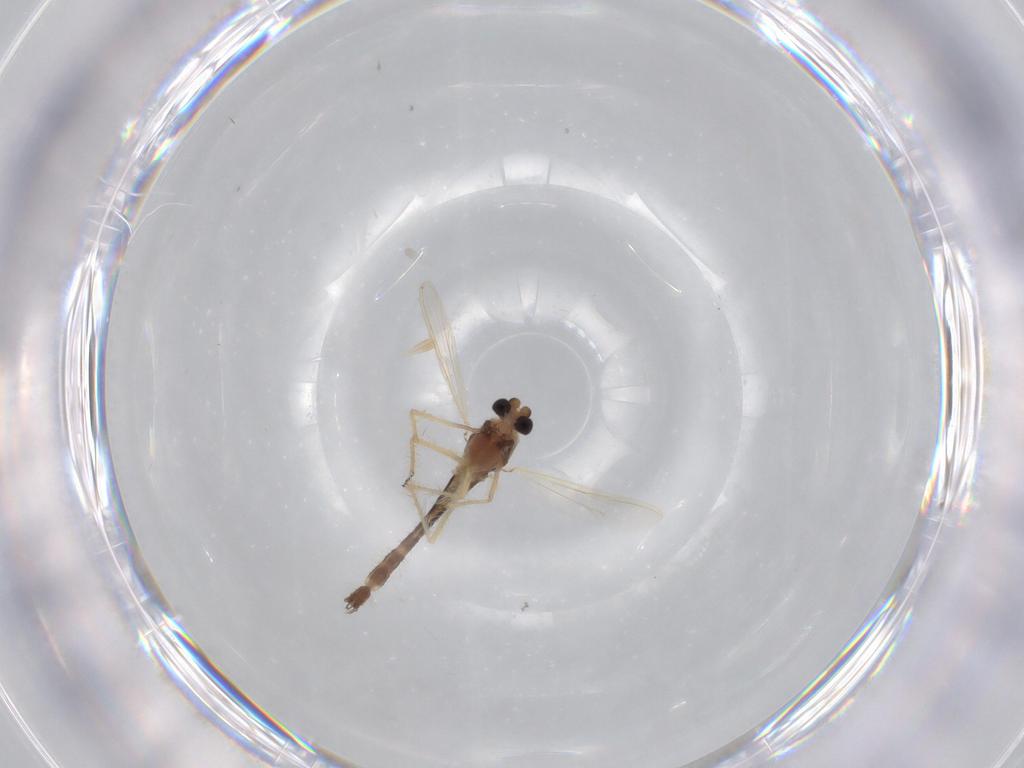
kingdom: Animalia
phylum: Arthropoda
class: Insecta
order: Diptera
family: Chironomidae
